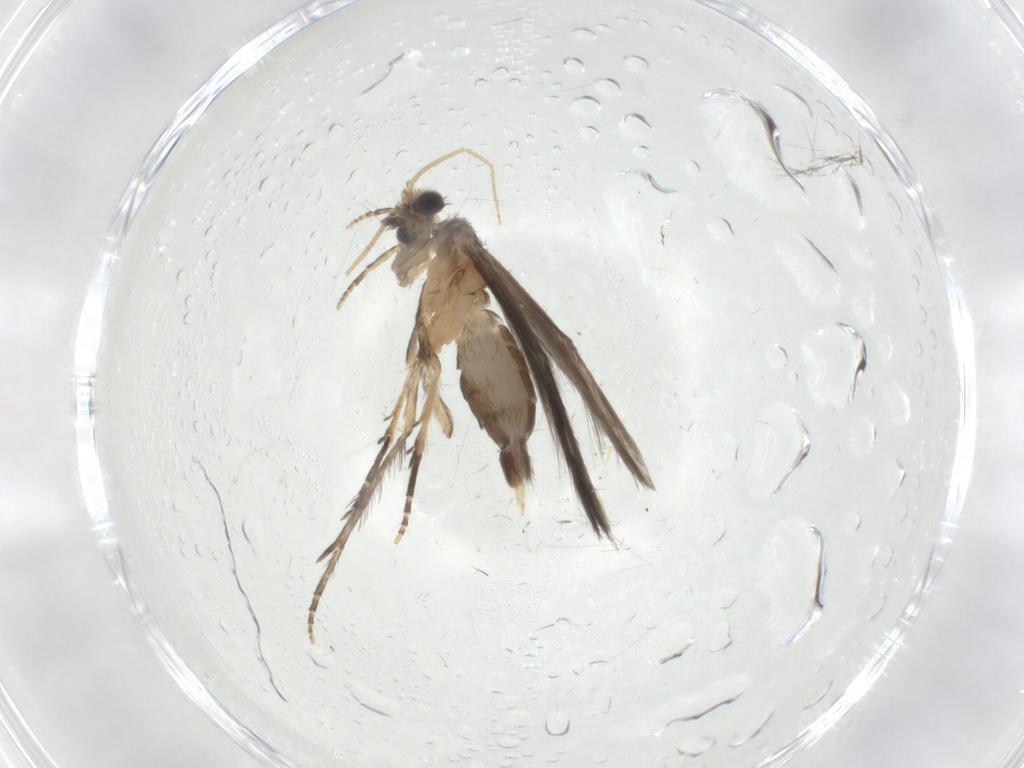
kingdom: Animalia
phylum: Arthropoda
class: Insecta
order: Trichoptera
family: Hydroptilidae
